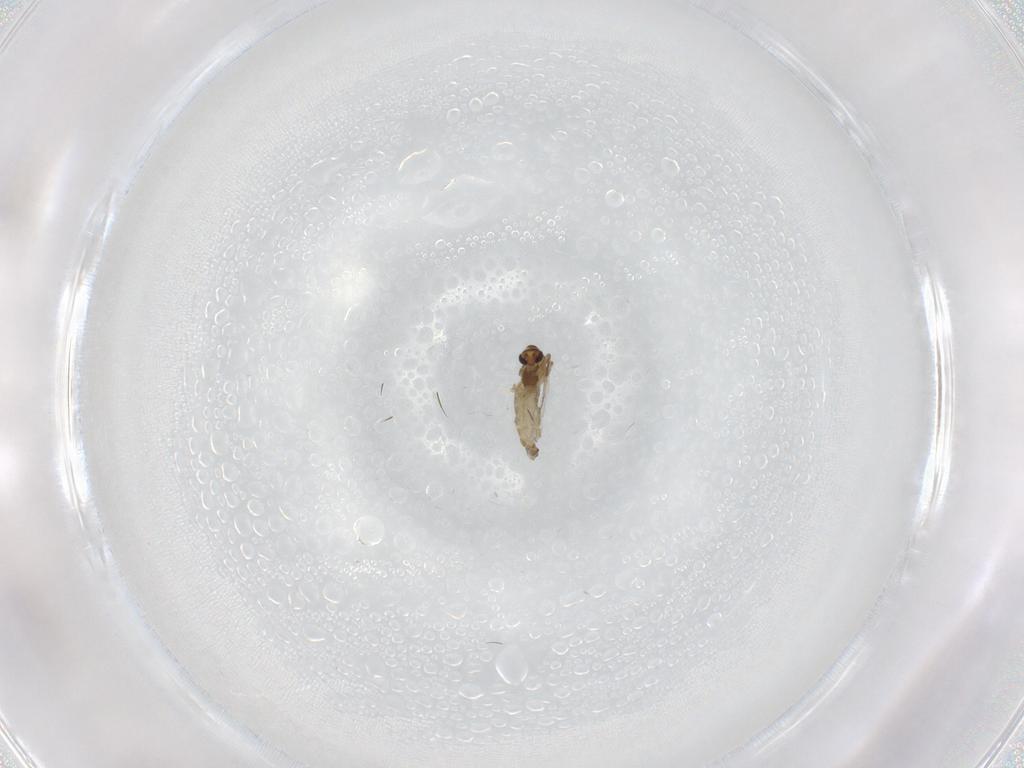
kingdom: Animalia
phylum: Arthropoda
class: Insecta
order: Diptera
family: Chironomidae
